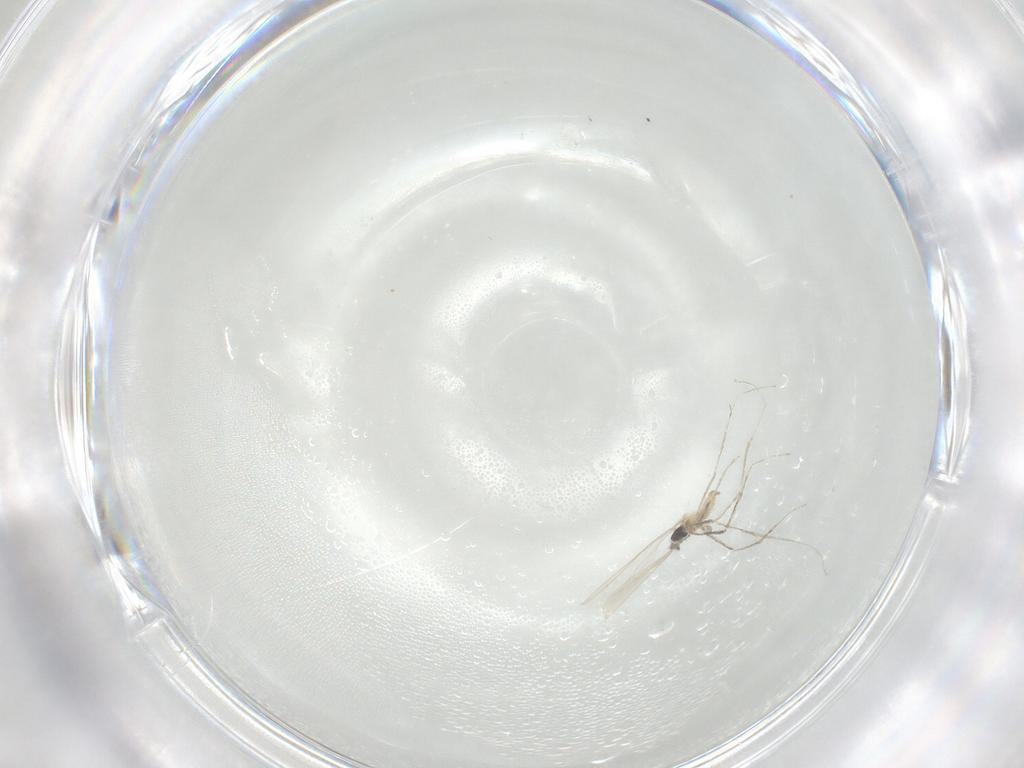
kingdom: Animalia
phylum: Arthropoda
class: Insecta
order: Diptera
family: Cecidomyiidae
